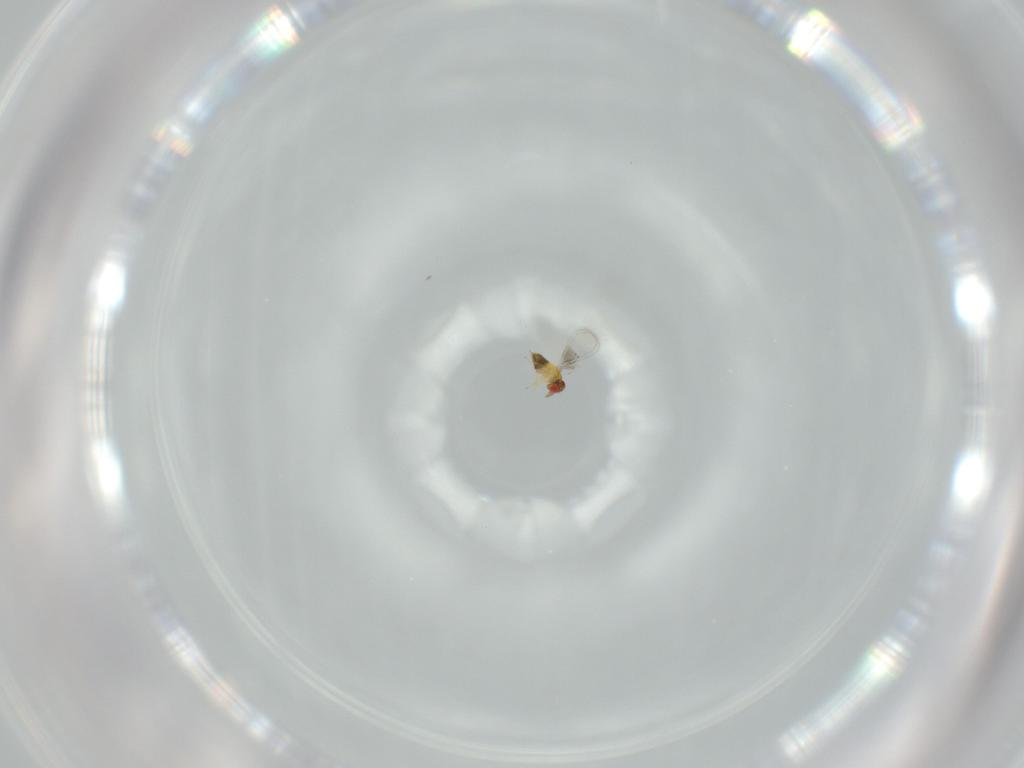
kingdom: Animalia
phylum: Arthropoda
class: Insecta
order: Hymenoptera
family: Trichogrammatidae
